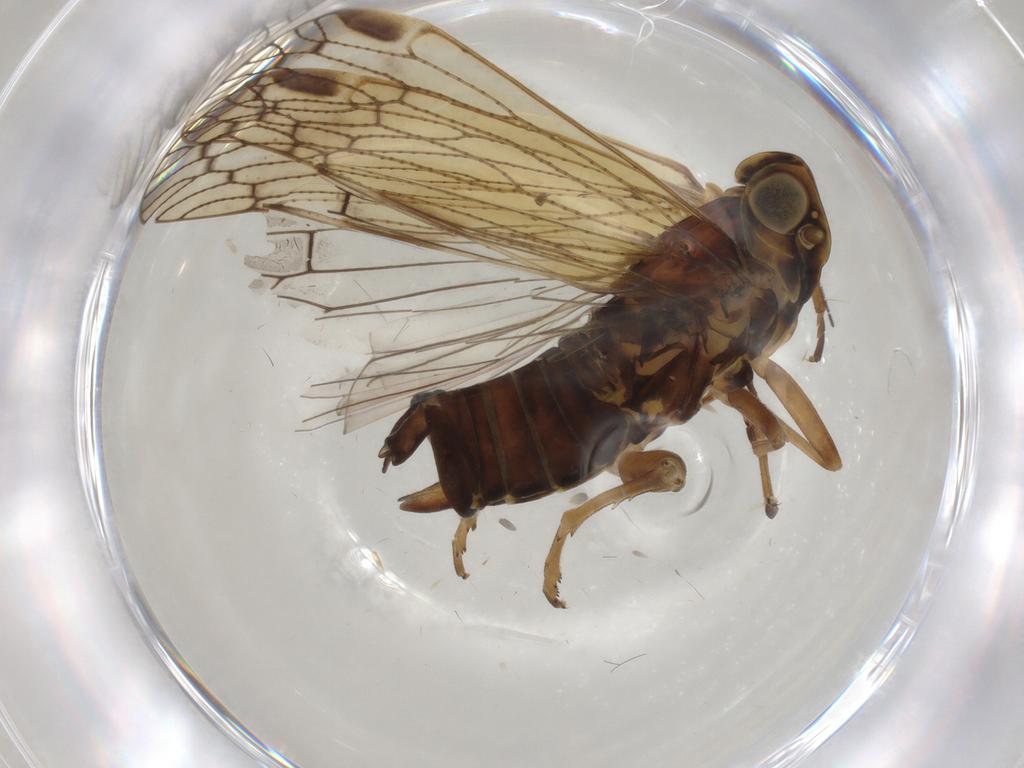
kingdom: Animalia
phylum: Arthropoda
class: Insecta
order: Hemiptera
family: Cixiidae
